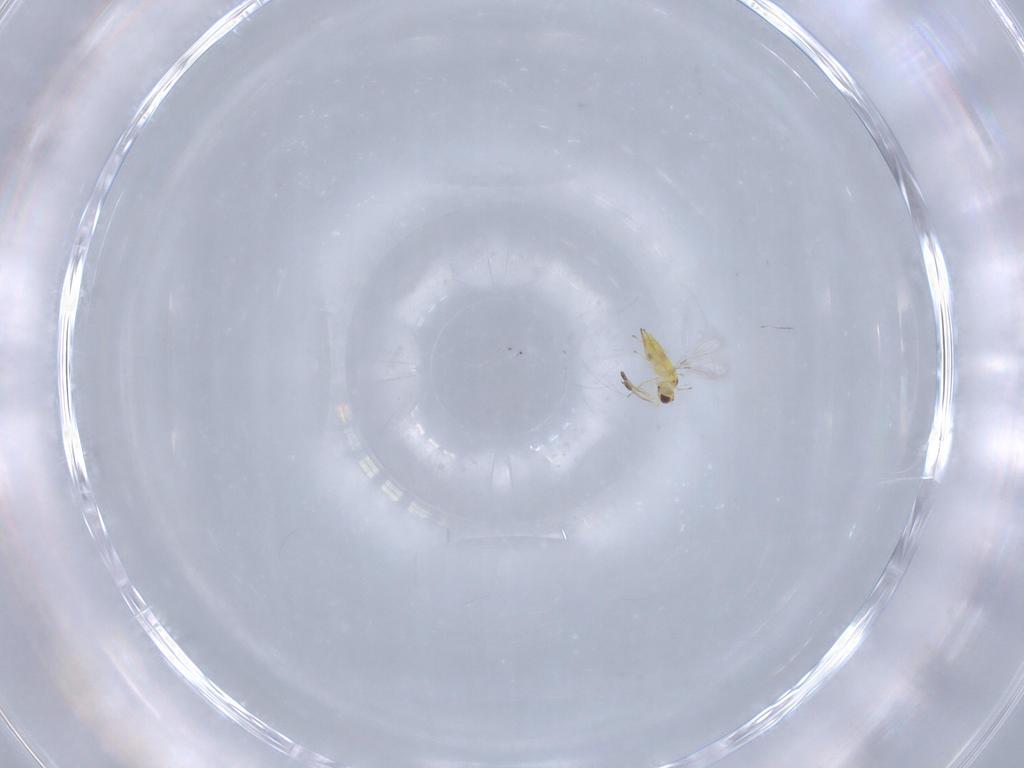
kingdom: Animalia
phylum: Arthropoda
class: Insecta
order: Hymenoptera
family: Mymaridae
